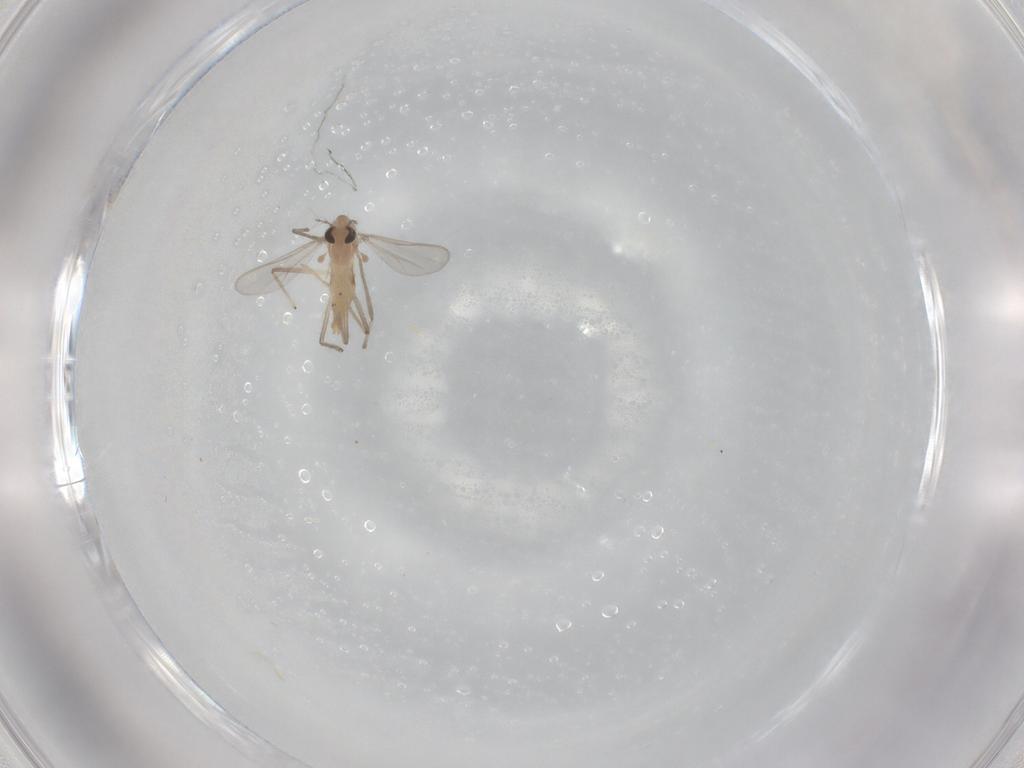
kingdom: Animalia
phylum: Arthropoda
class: Insecta
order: Diptera
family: Chironomidae
